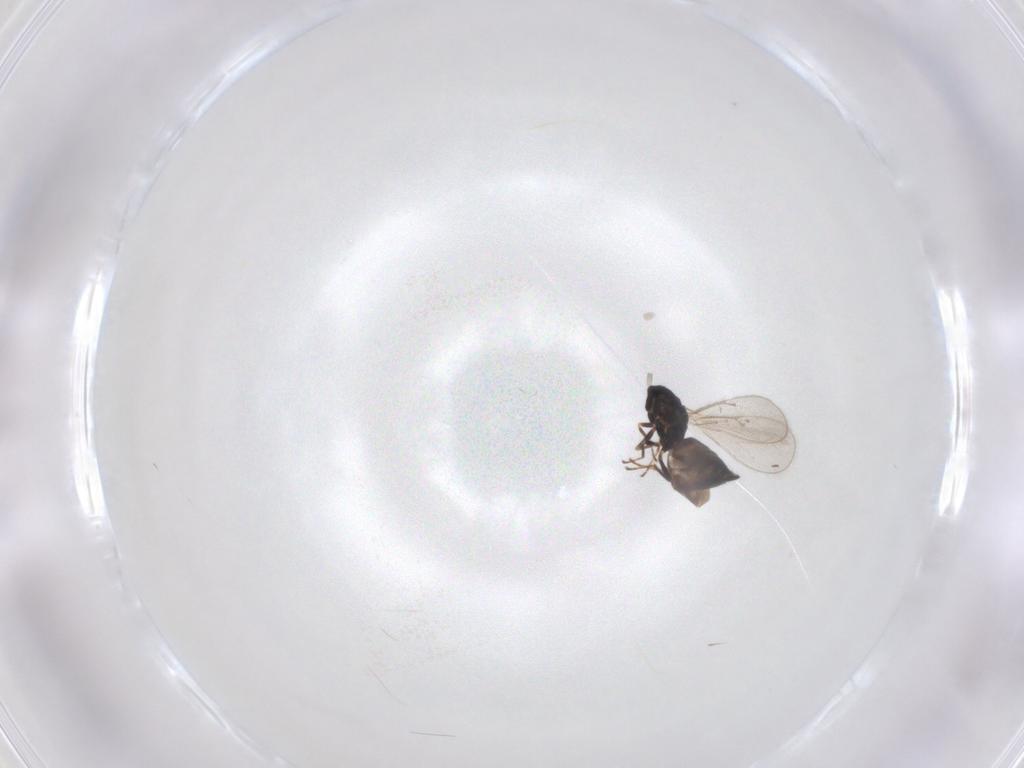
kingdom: Animalia
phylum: Arthropoda
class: Insecta
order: Hymenoptera
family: Eulophidae
